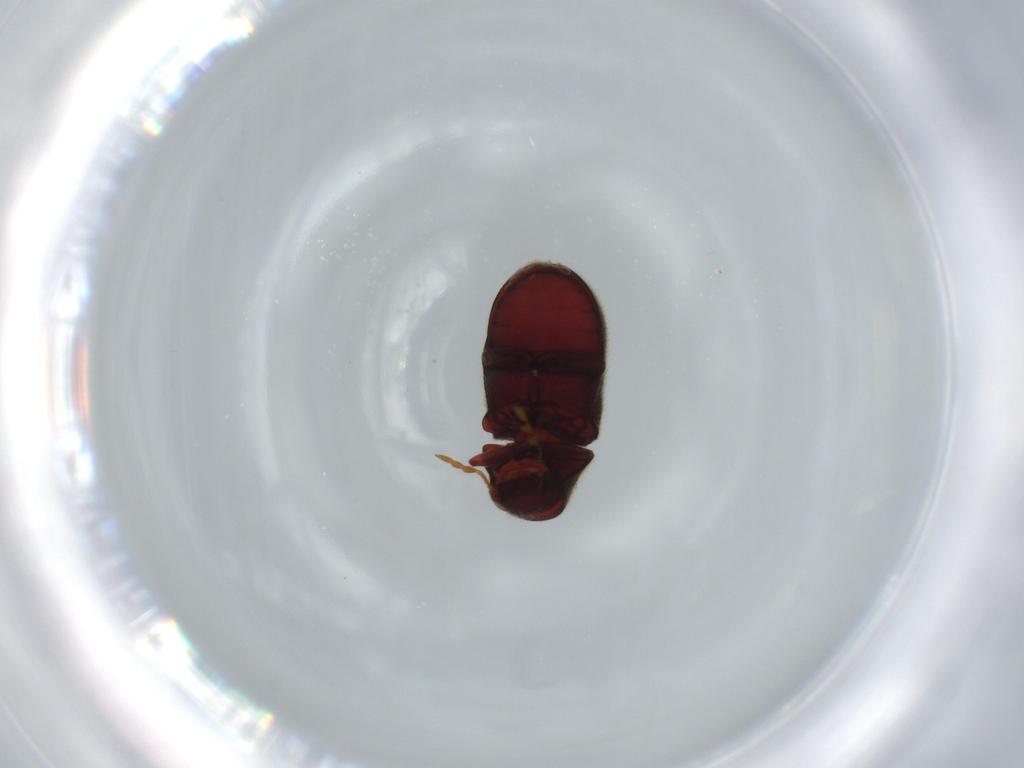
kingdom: Animalia
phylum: Arthropoda
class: Insecta
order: Coleoptera
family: Ptinidae
